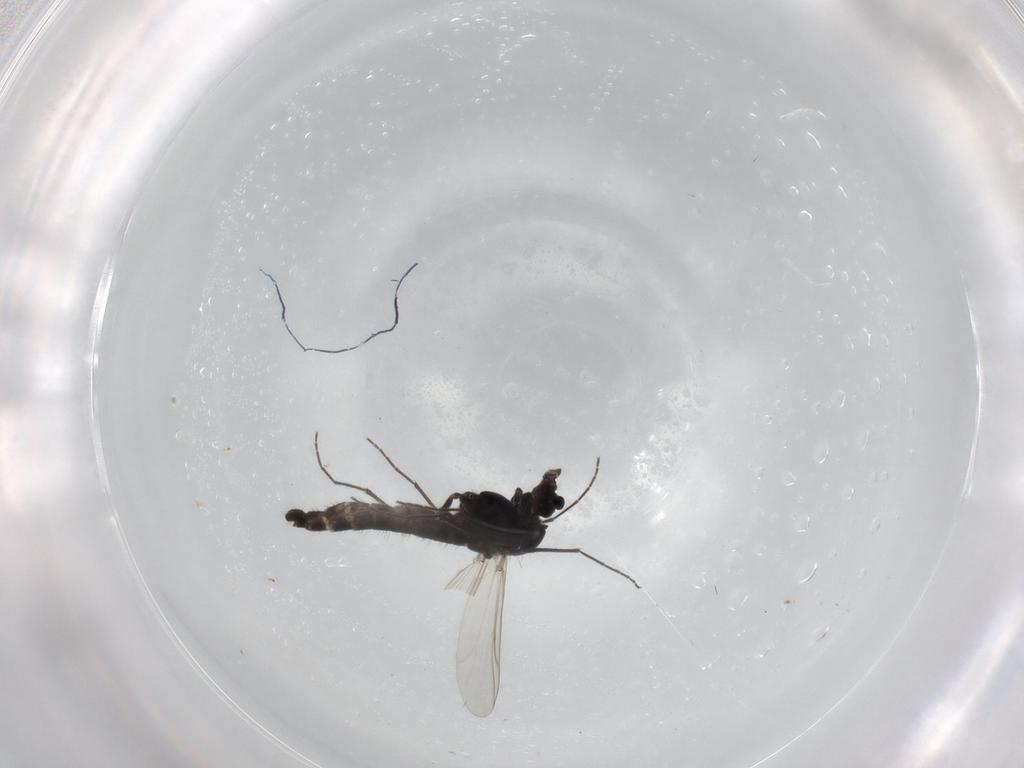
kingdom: Animalia
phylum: Arthropoda
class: Insecta
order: Diptera
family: Chironomidae
